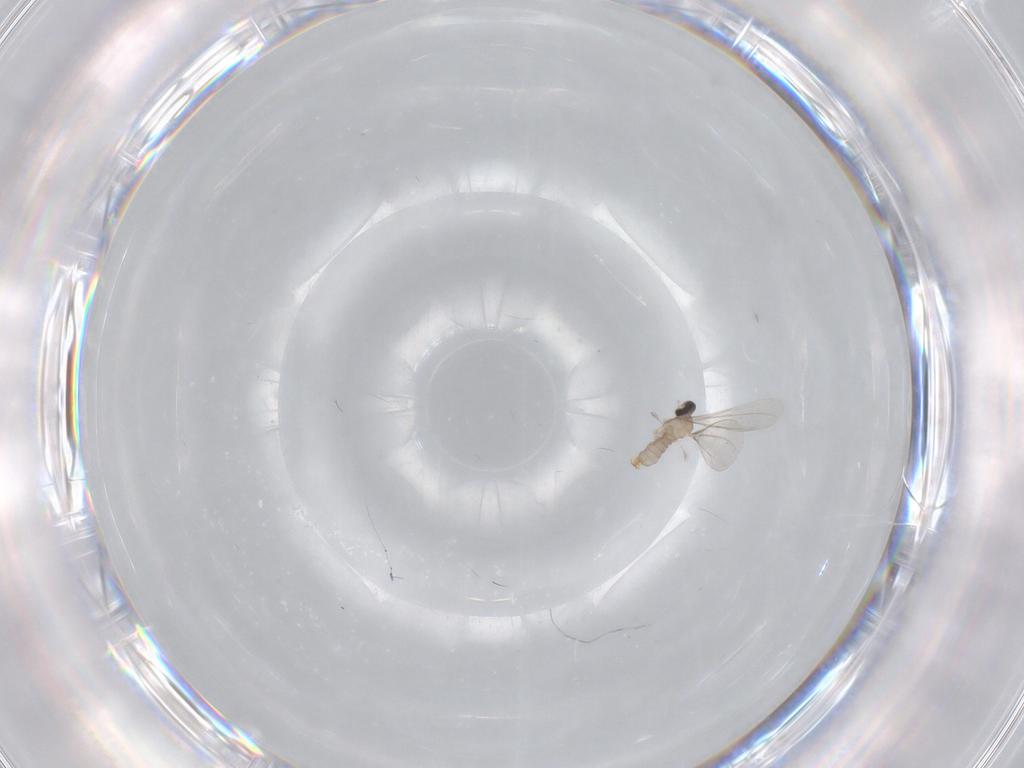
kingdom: Animalia
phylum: Arthropoda
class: Insecta
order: Diptera
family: Cecidomyiidae
